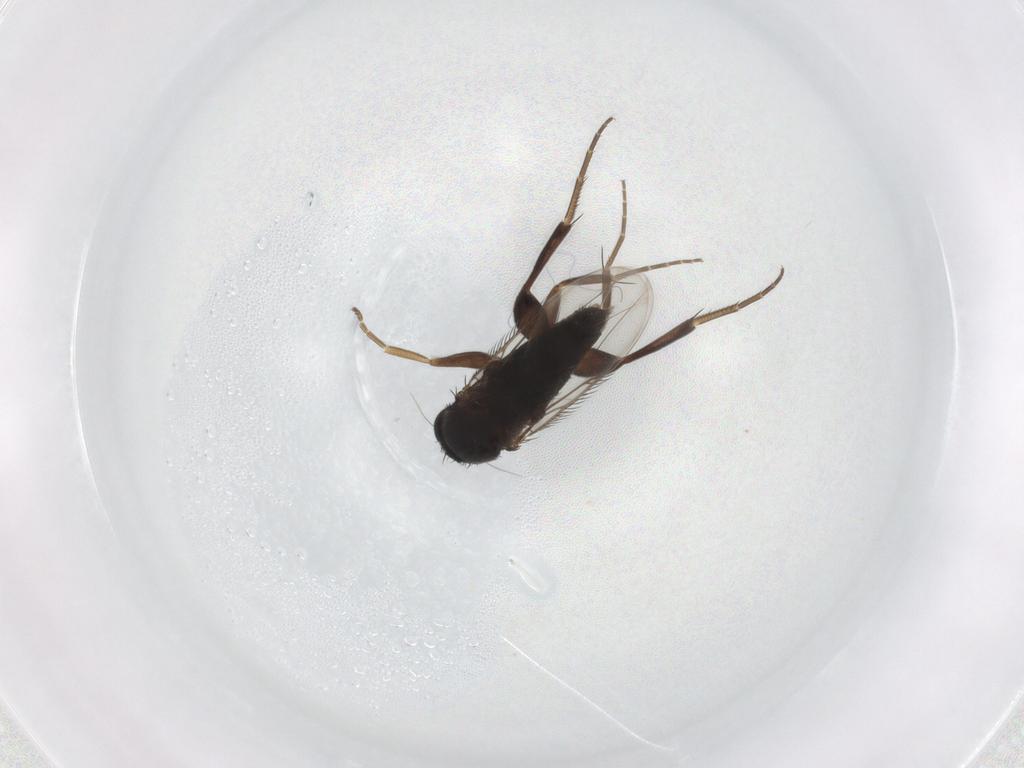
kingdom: Animalia
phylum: Arthropoda
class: Insecta
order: Diptera
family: Phoridae
